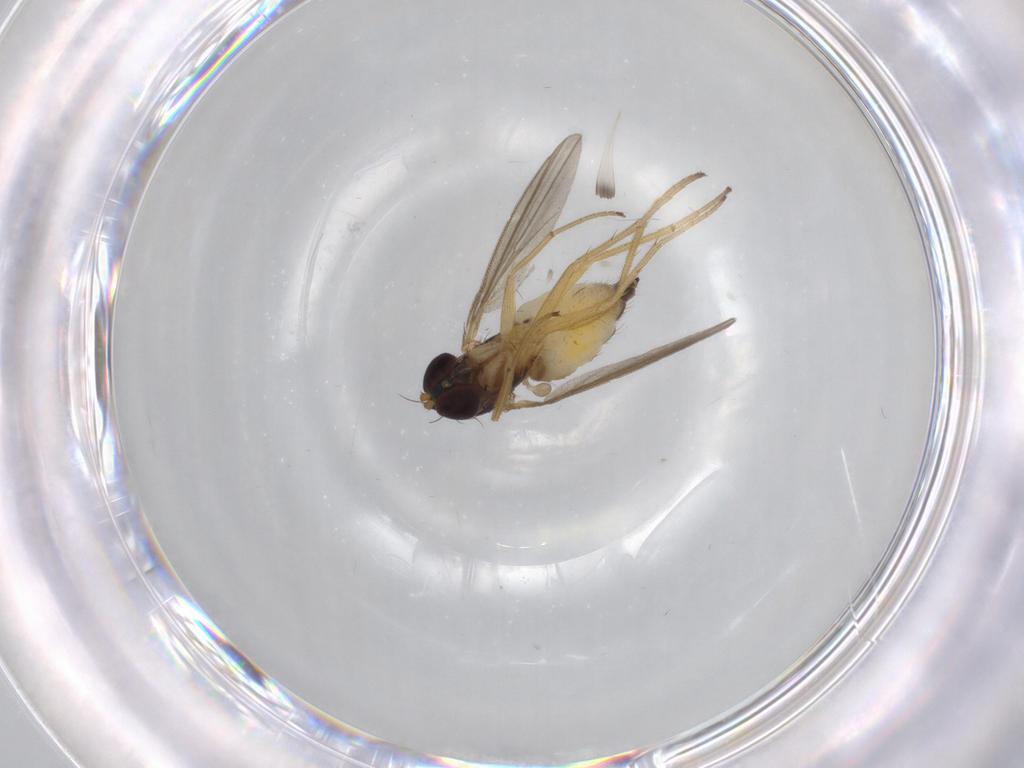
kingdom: Animalia
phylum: Arthropoda
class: Insecta
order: Diptera
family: Dolichopodidae
